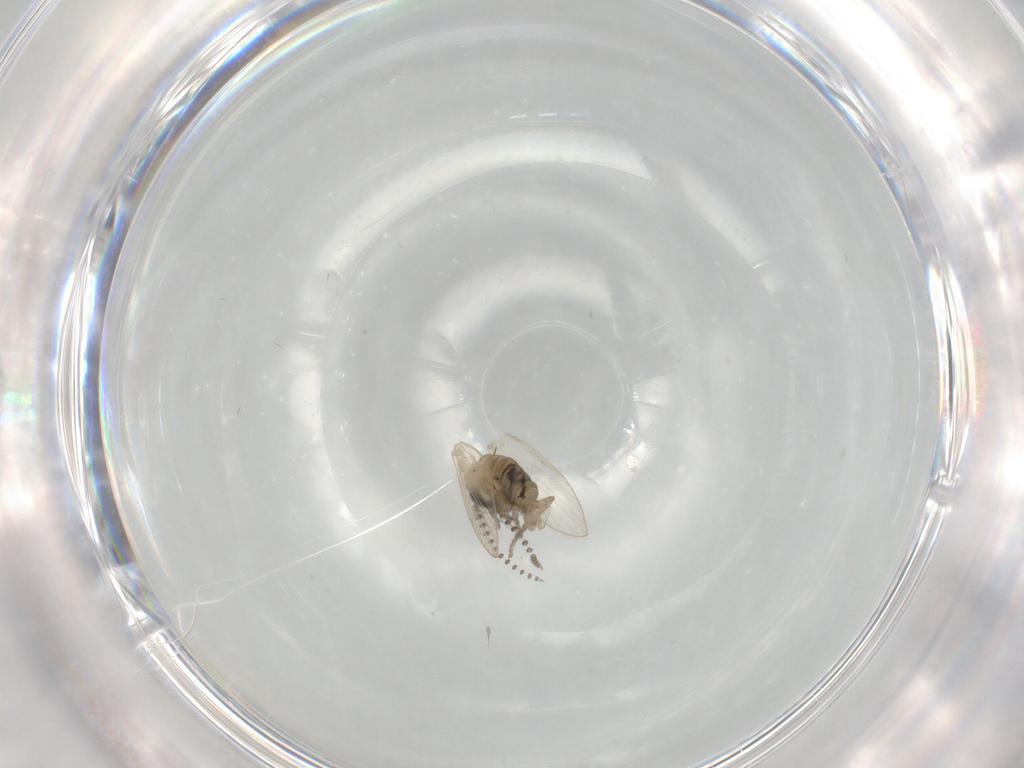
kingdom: Animalia
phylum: Arthropoda
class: Insecta
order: Diptera
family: Psychodidae
